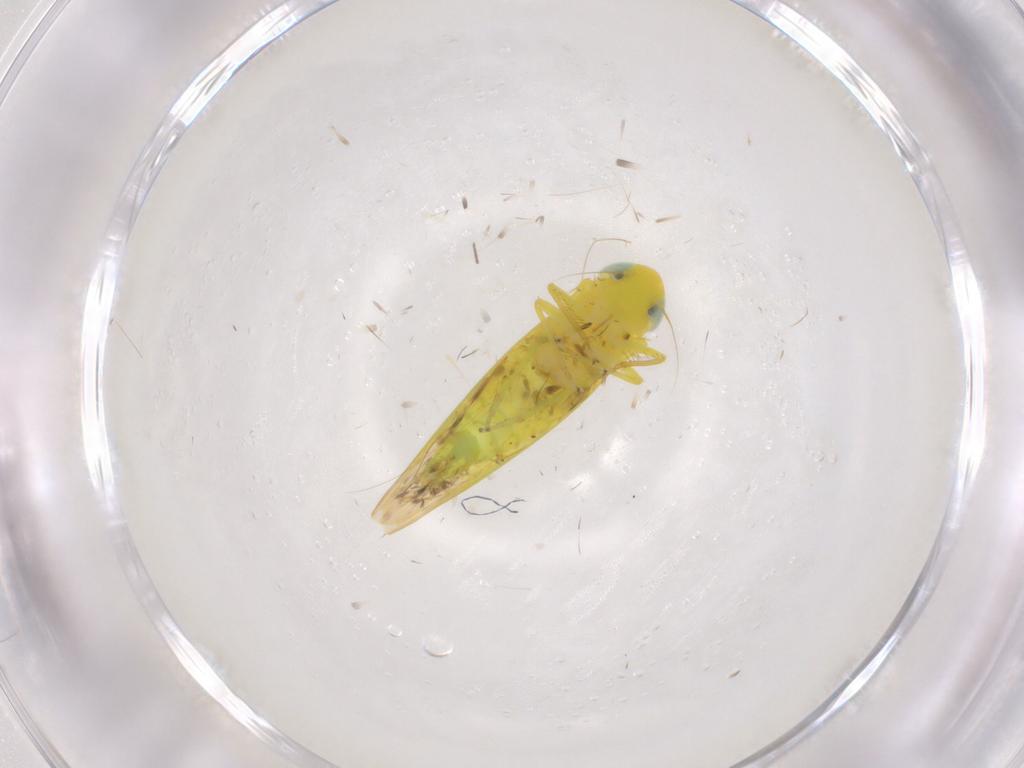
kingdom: Animalia
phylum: Arthropoda
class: Insecta
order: Hemiptera
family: Cicadellidae
